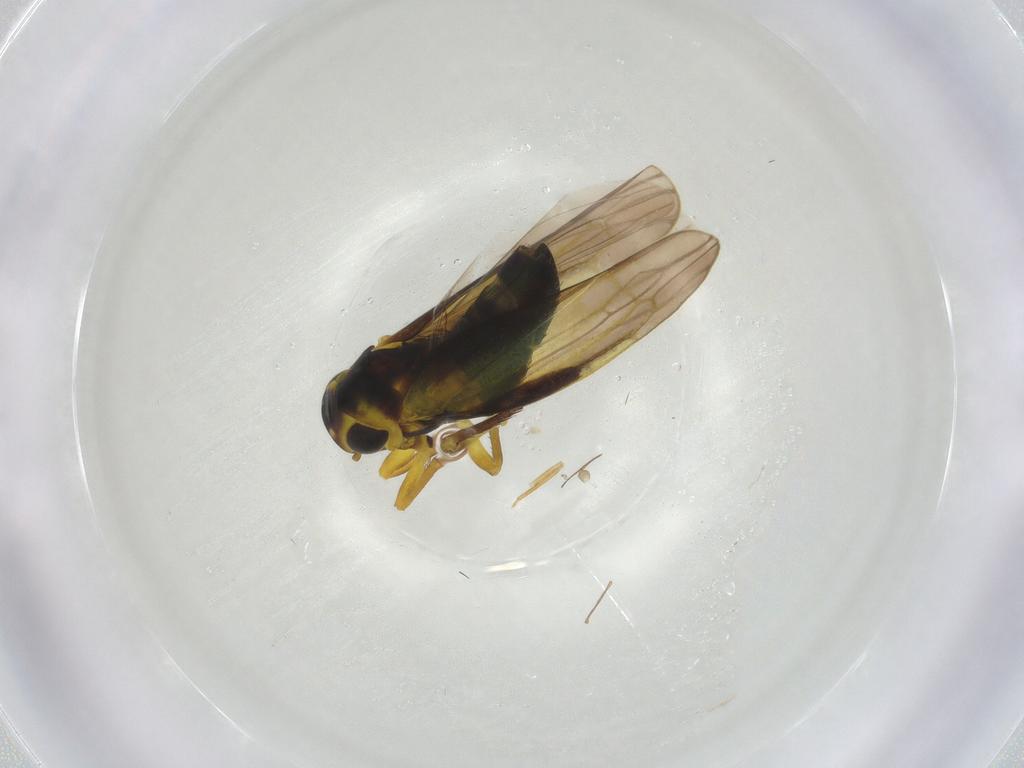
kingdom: Animalia
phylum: Arthropoda
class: Insecta
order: Hemiptera
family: Cicadellidae
